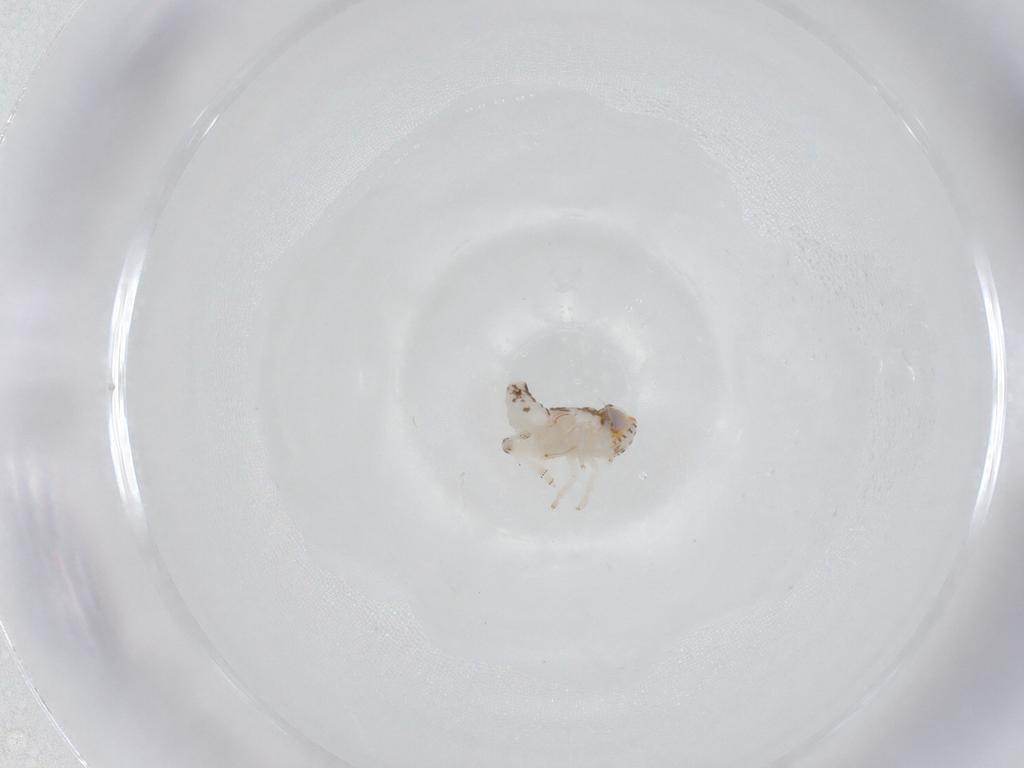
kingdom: Animalia
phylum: Arthropoda
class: Insecta
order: Hemiptera
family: Nogodinidae
